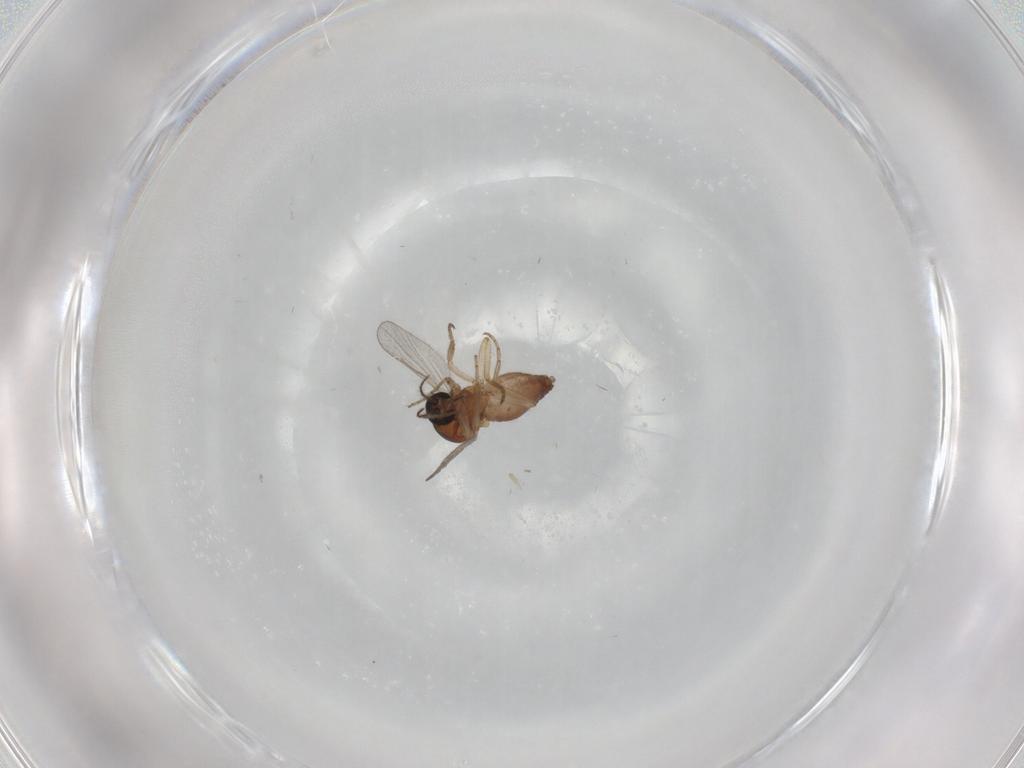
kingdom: Animalia
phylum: Arthropoda
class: Insecta
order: Diptera
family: Ceratopogonidae
